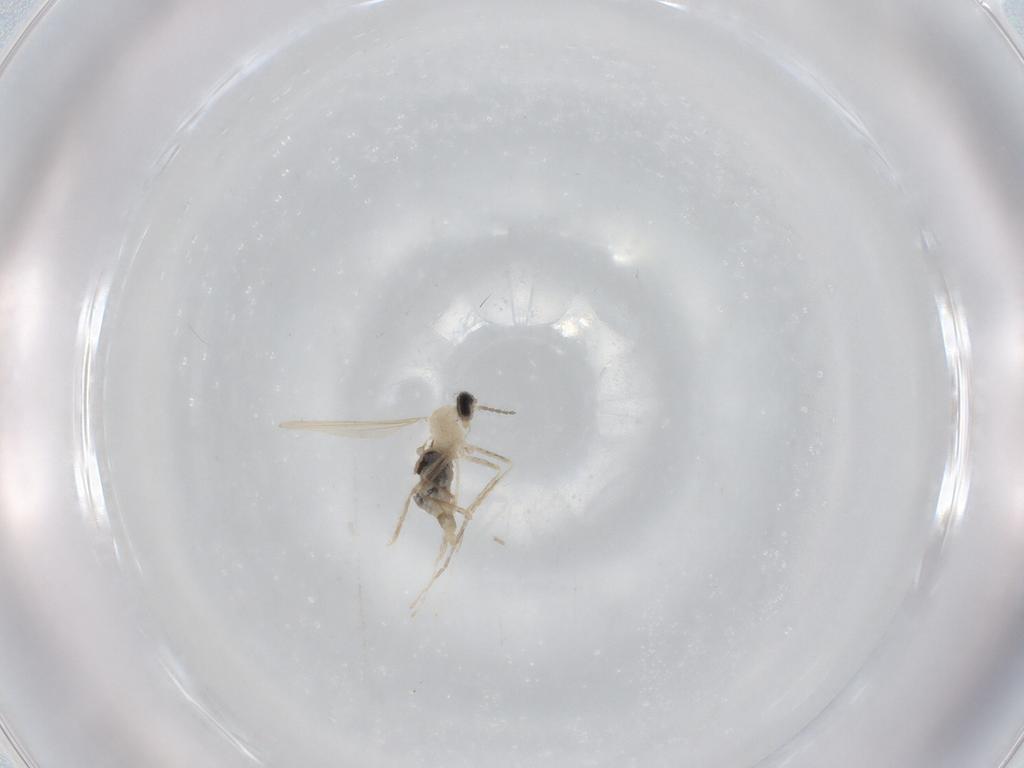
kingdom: Animalia
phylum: Arthropoda
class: Insecta
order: Diptera
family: Cecidomyiidae
